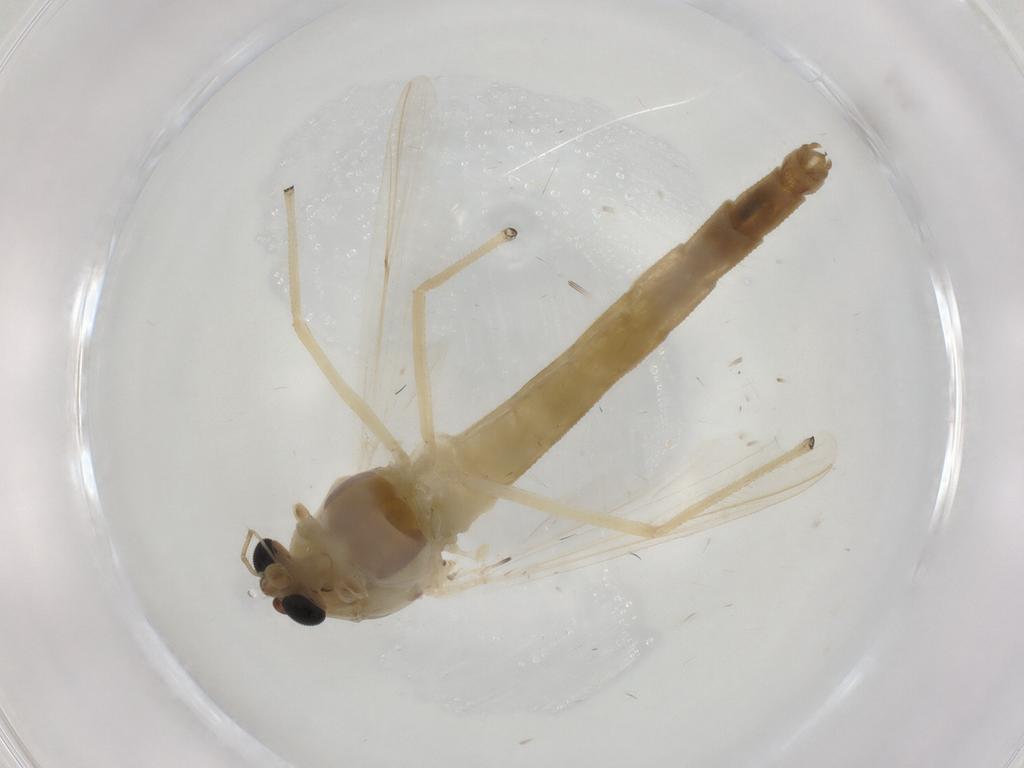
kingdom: Animalia
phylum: Arthropoda
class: Insecta
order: Diptera
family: Chironomidae
